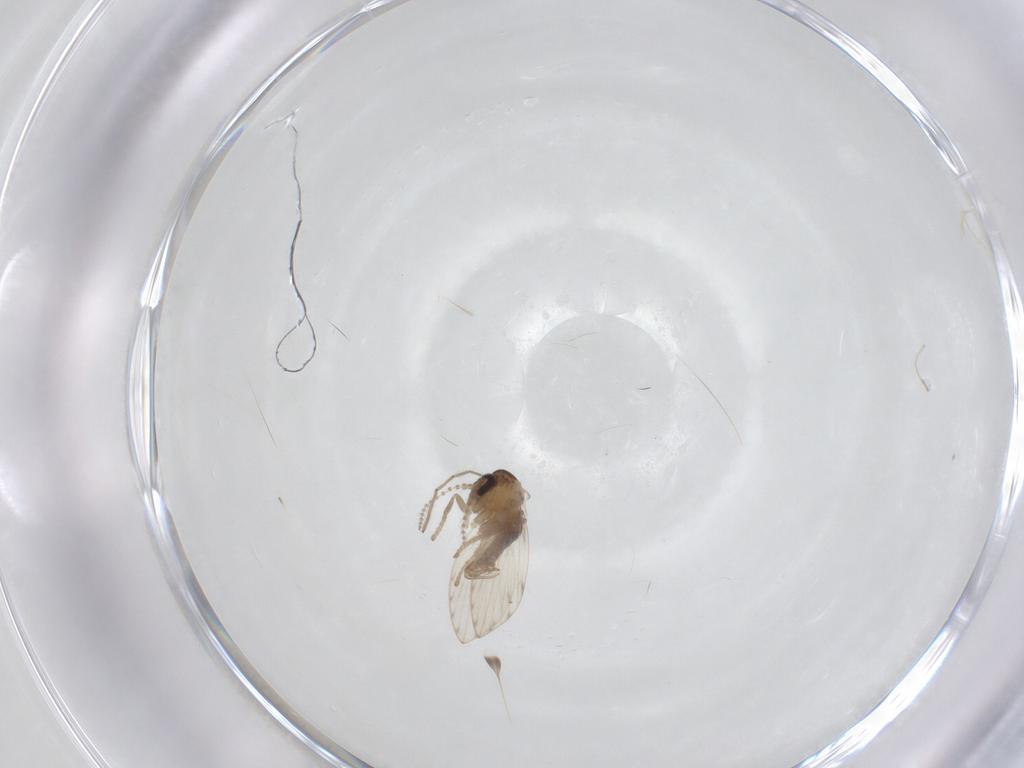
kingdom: Animalia
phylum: Arthropoda
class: Insecta
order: Diptera
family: Psychodidae
